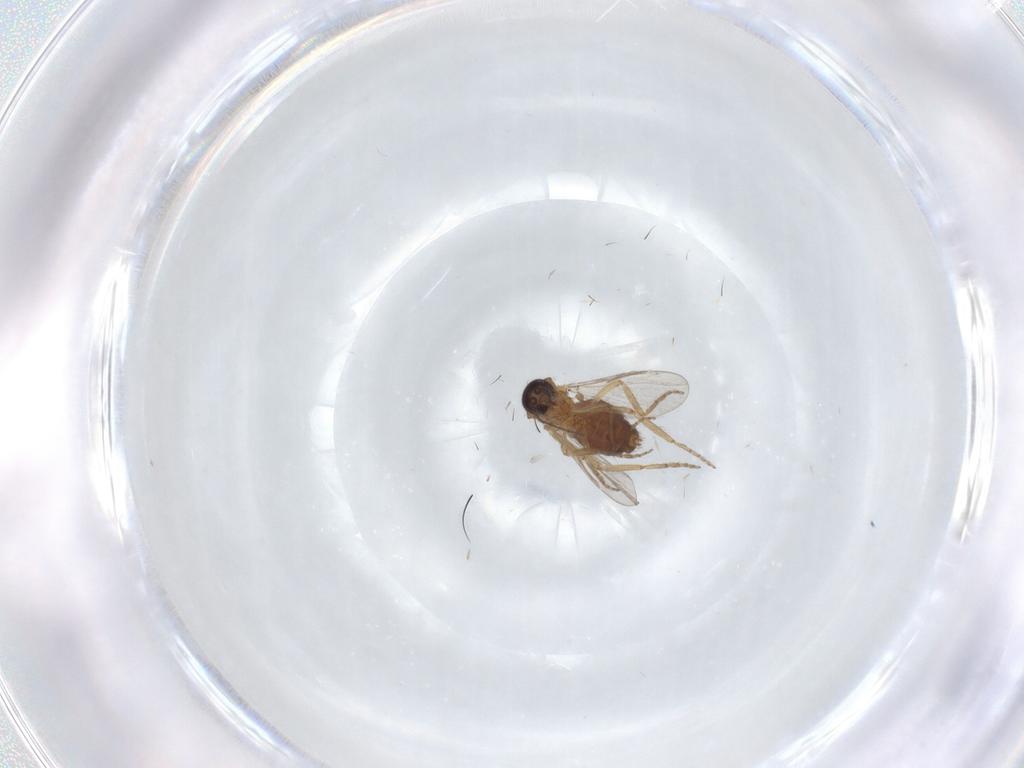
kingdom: Animalia
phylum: Arthropoda
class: Insecta
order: Diptera
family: Ceratopogonidae
